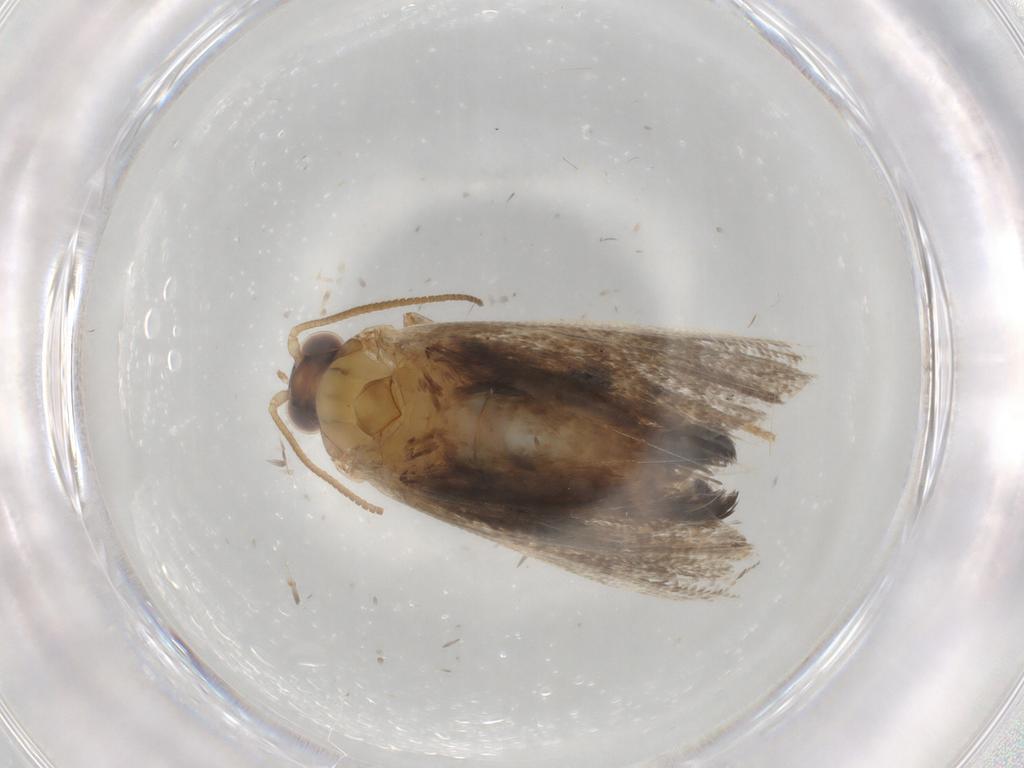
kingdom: Animalia
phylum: Arthropoda
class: Insecta
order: Lepidoptera
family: Tortricidae
